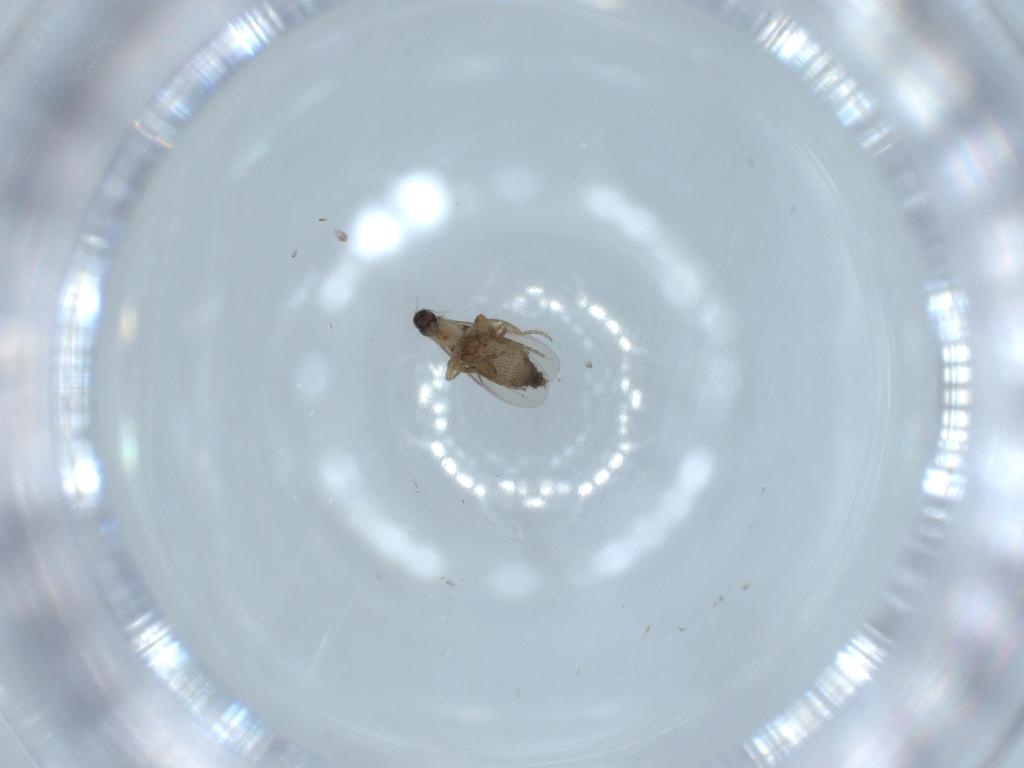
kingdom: Animalia
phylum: Arthropoda
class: Insecta
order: Diptera
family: Phoridae
